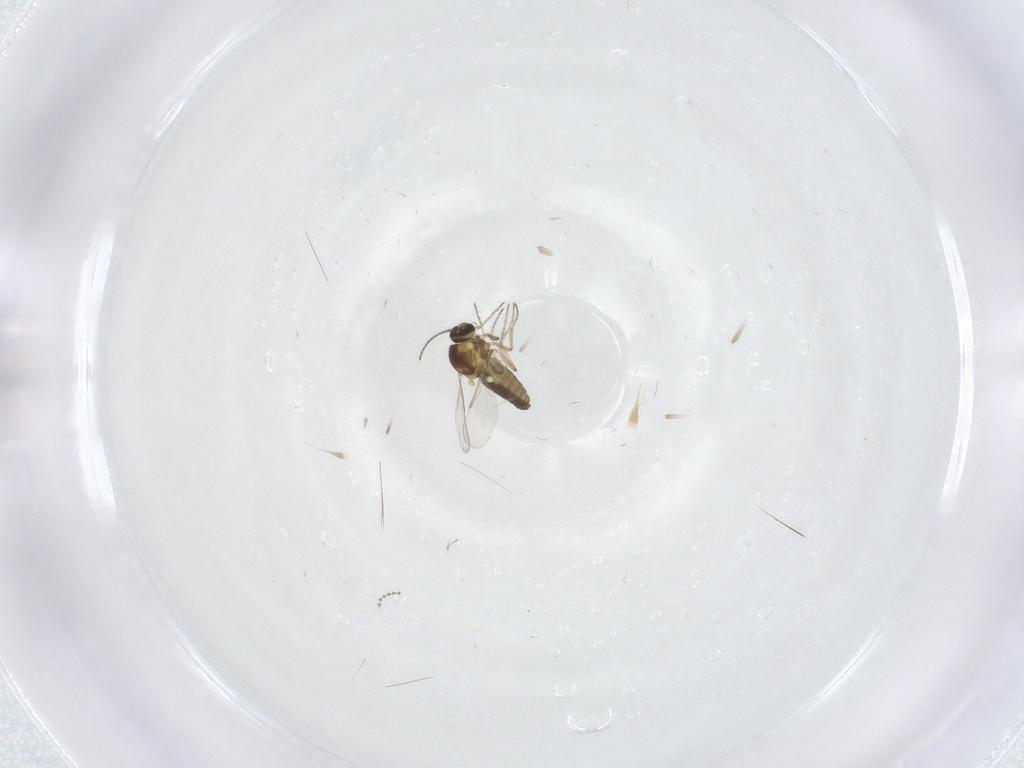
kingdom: Animalia
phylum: Arthropoda
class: Insecta
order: Diptera
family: Cecidomyiidae
